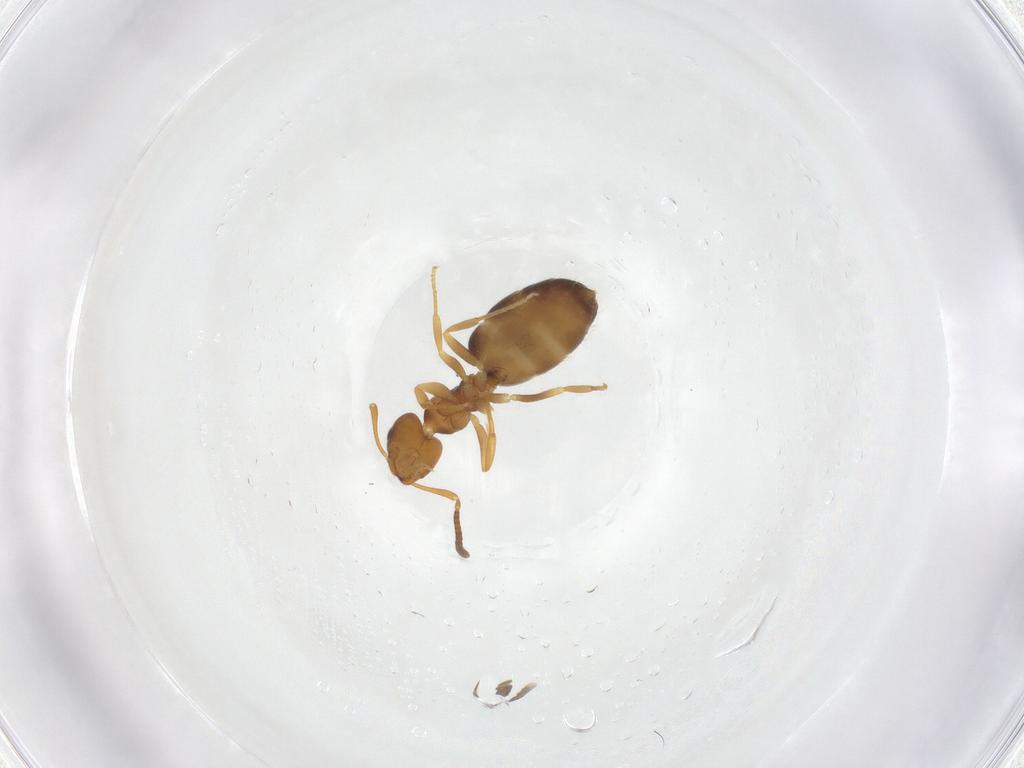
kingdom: Animalia
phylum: Arthropoda
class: Insecta
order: Hymenoptera
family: Formicidae
